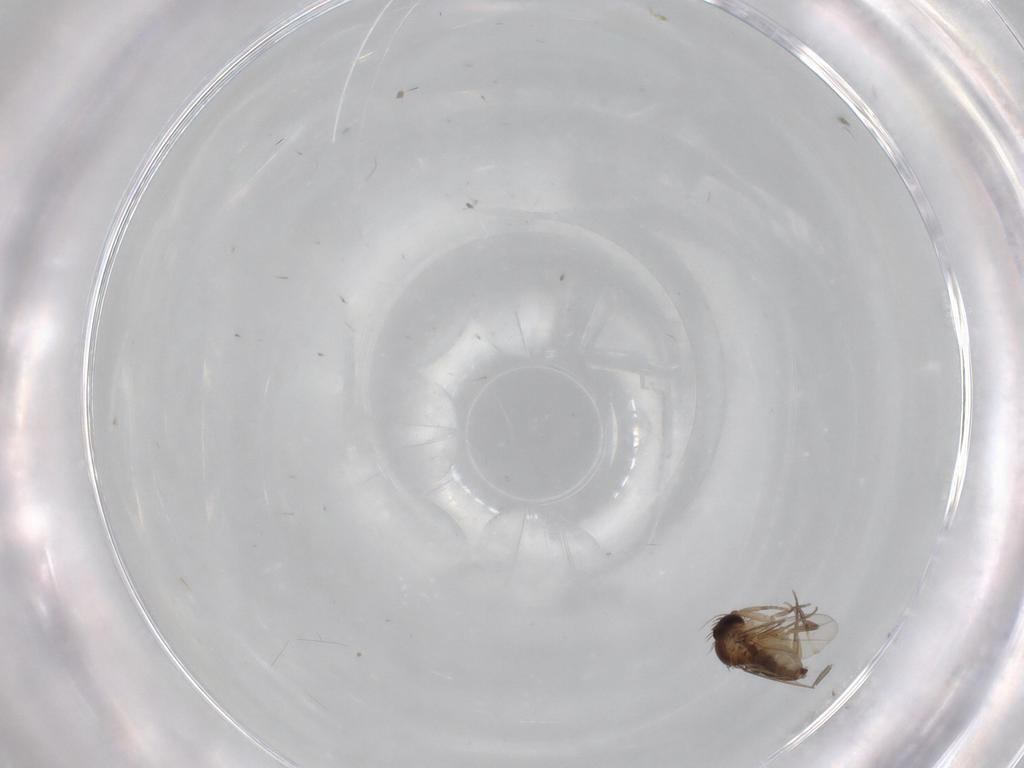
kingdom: Animalia
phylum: Arthropoda
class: Insecta
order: Diptera
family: Phoridae
